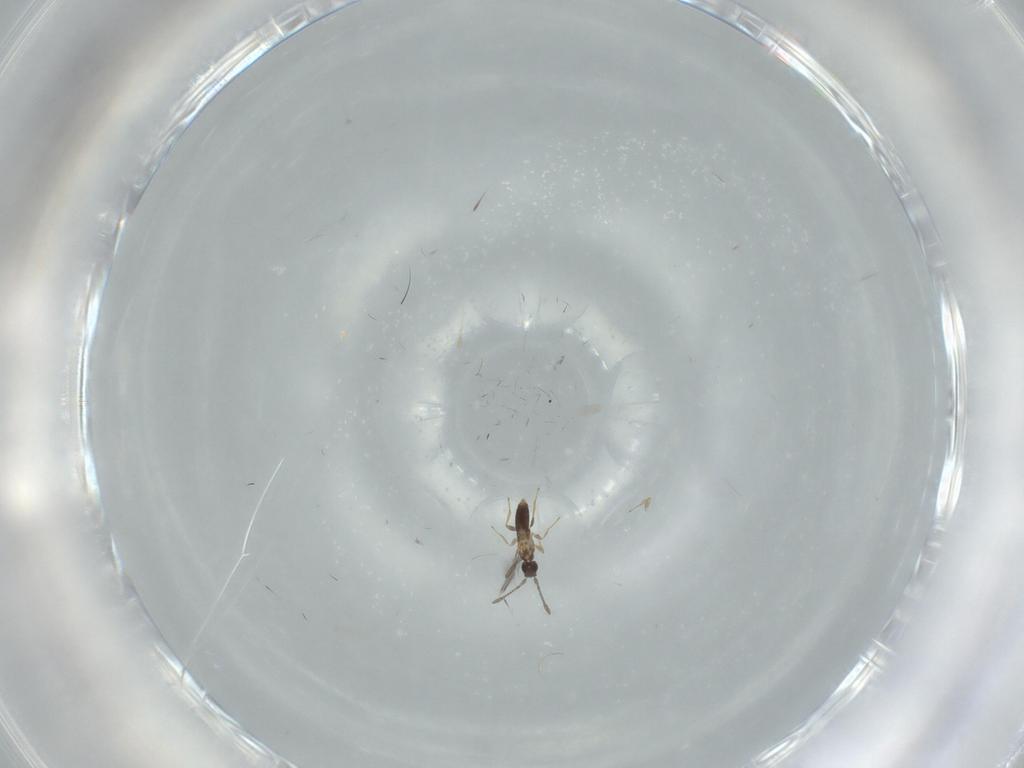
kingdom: Animalia
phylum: Arthropoda
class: Insecta
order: Hymenoptera
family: Mymaridae
